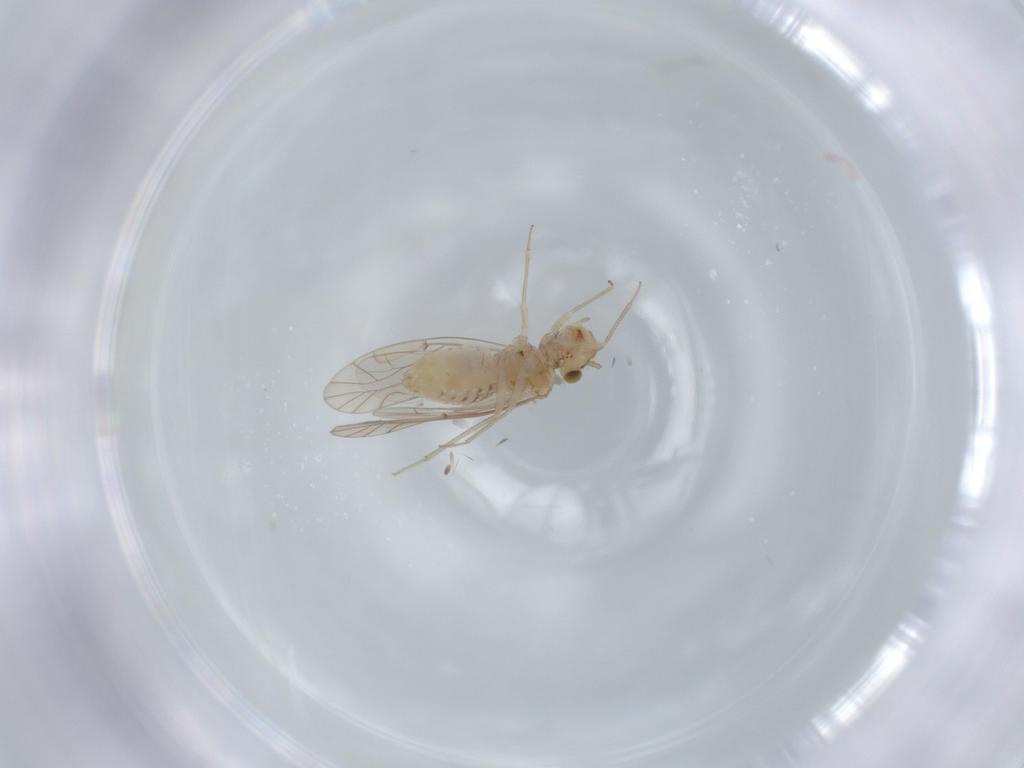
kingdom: Animalia
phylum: Arthropoda
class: Insecta
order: Psocodea
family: Lachesillidae
